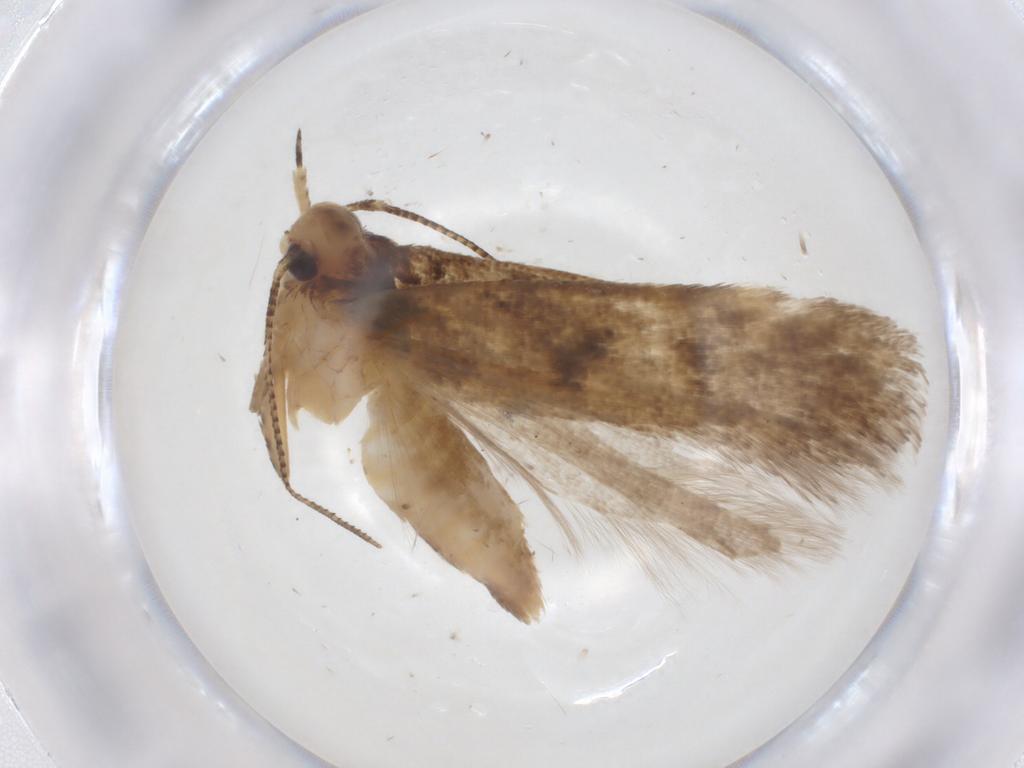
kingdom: Animalia
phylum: Arthropoda
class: Insecta
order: Lepidoptera
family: Gelechiidae
